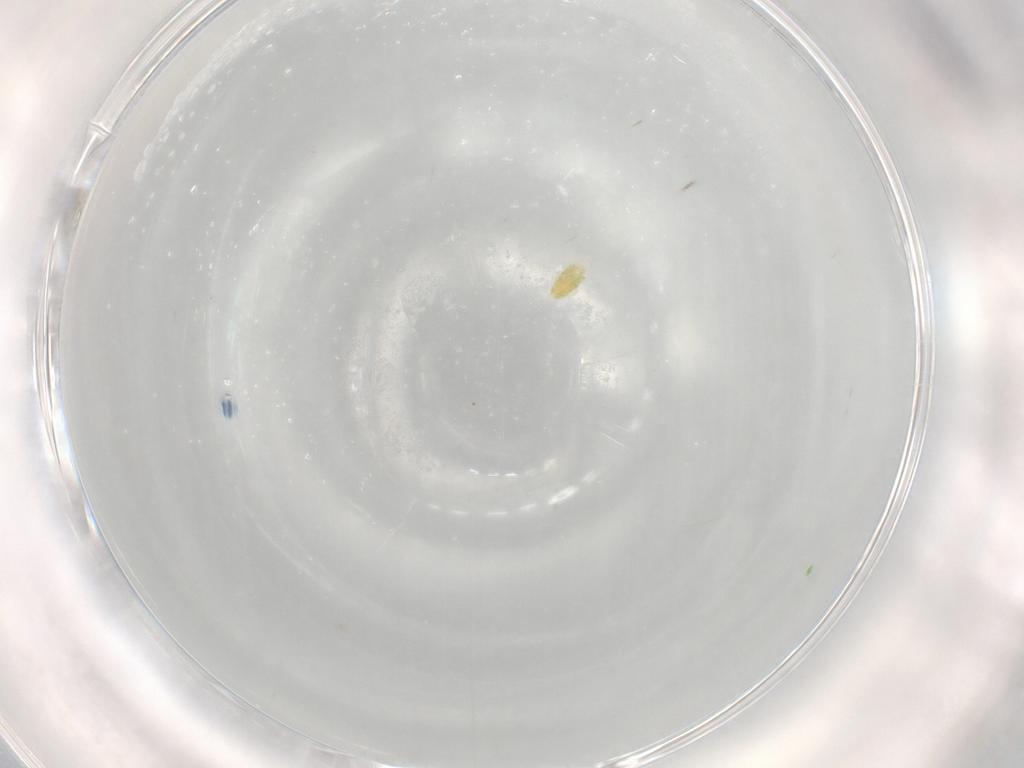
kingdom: Animalia
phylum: Arthropoda
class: Arachnida
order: Trombidiformes
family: Eupodidae
